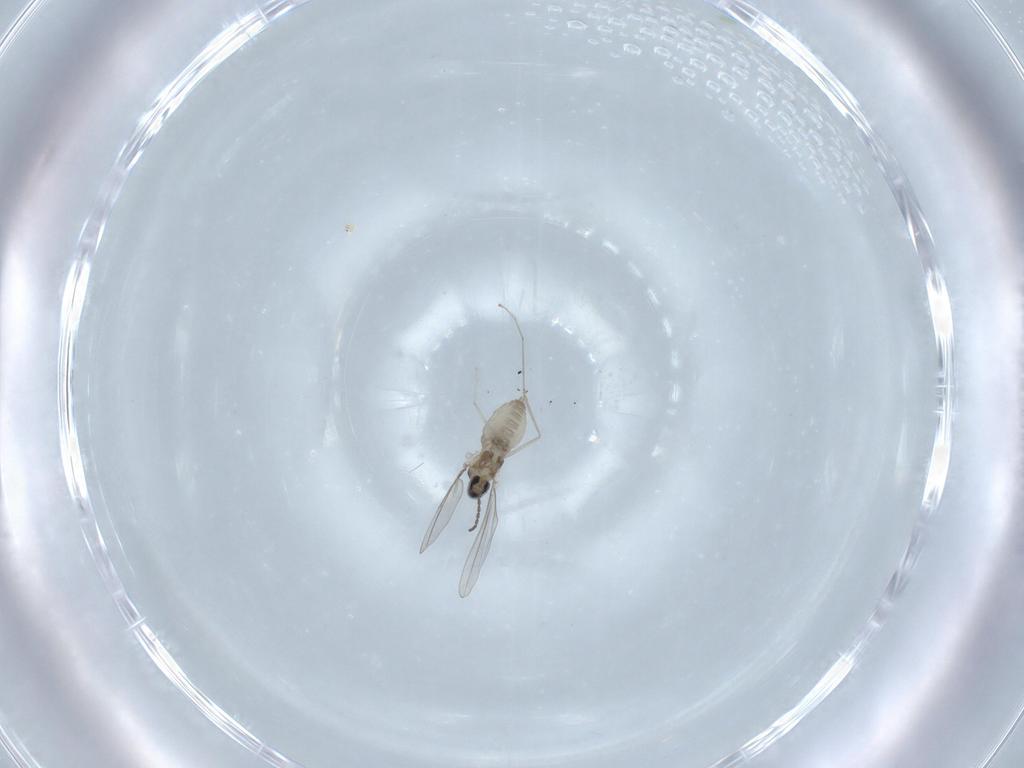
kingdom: Animalia
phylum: Arthropoda
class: Insecta
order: Diptera
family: Cecidomyiidae
